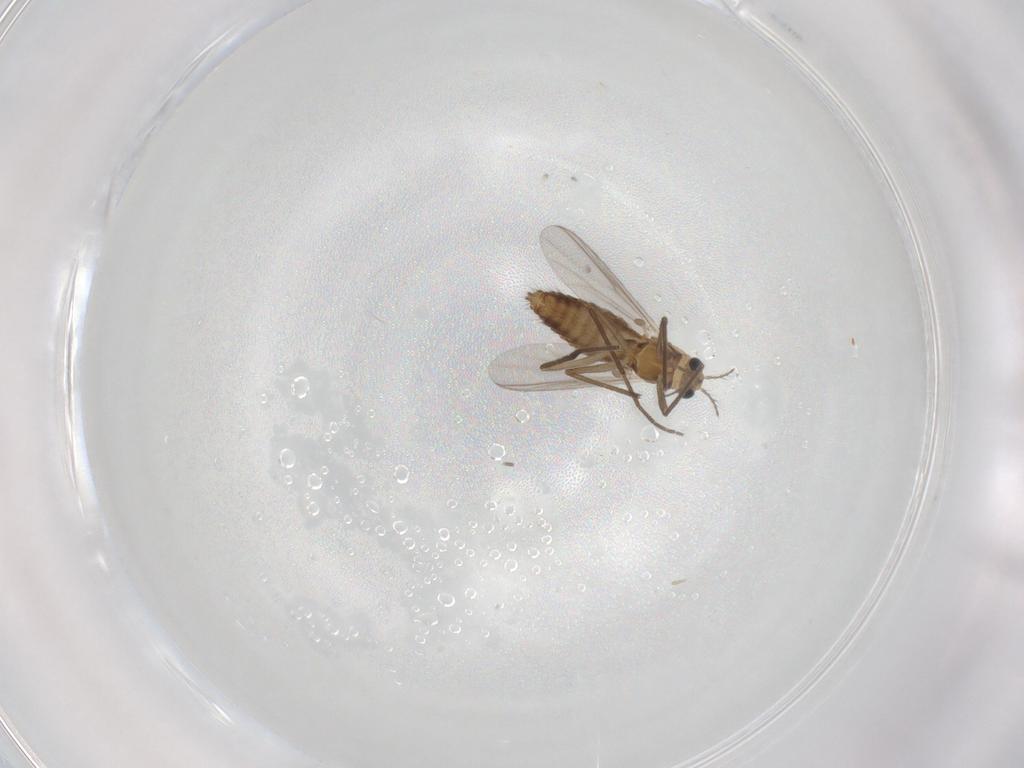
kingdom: Animalia
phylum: Arthropoda
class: Insecta
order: Diptera
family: Chironomidae
